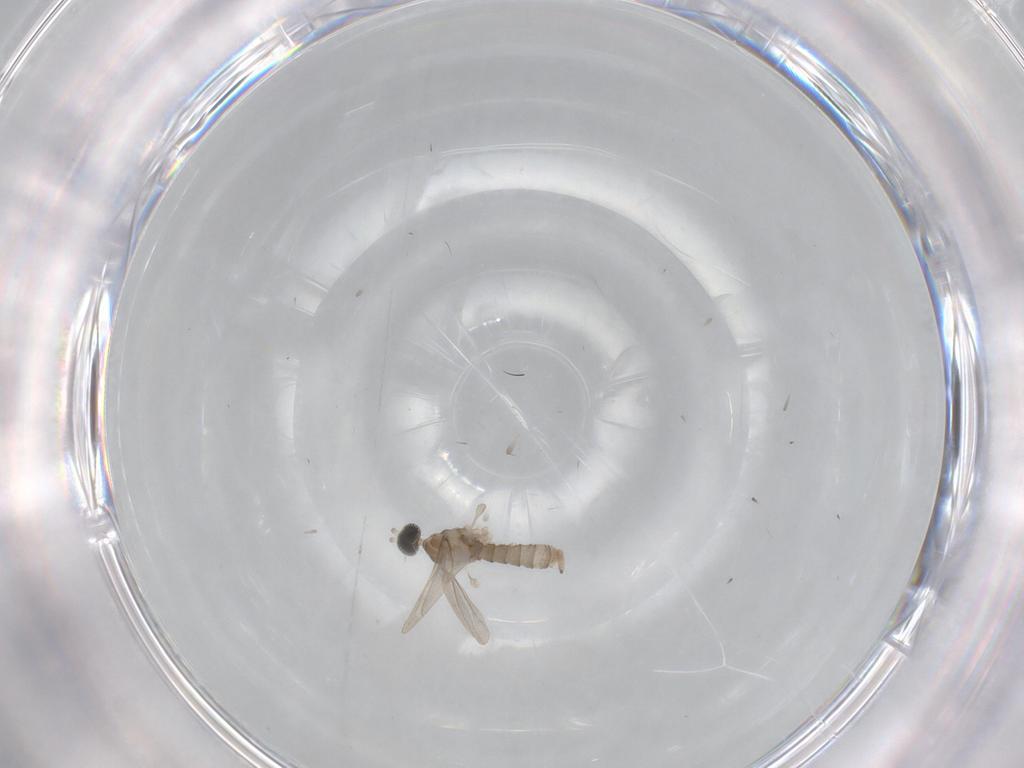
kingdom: Animalia
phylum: Arthropoda
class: Insecta
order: Diptera
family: Cecidomyiidae
